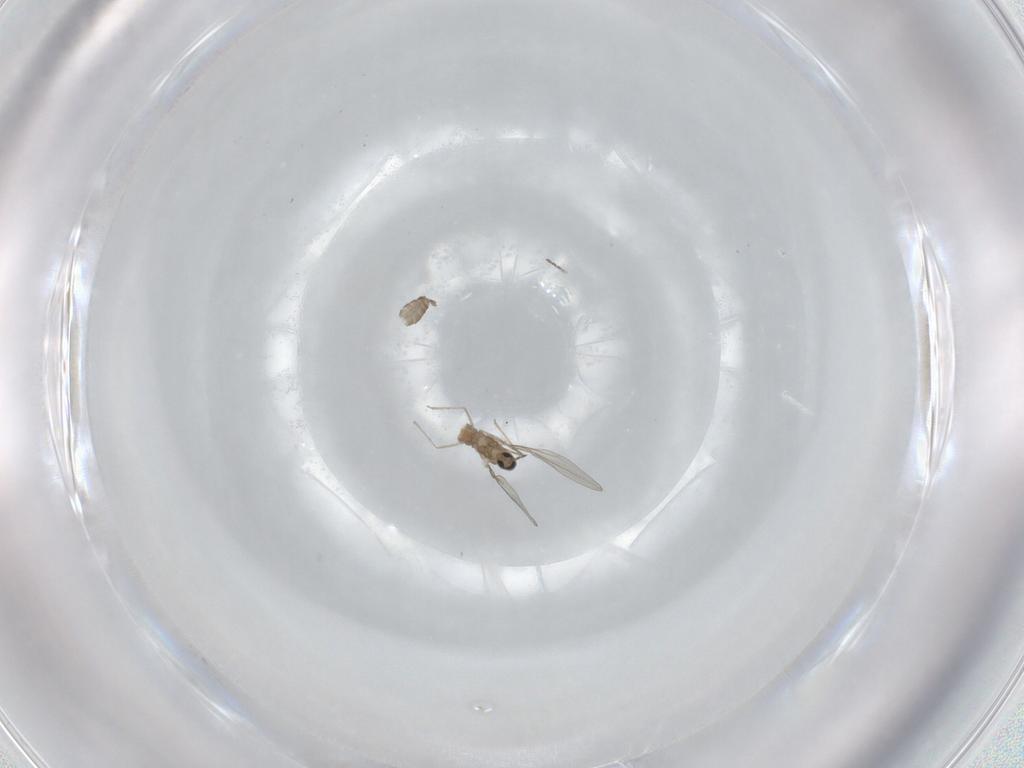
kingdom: Animalia
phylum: Arthropoda
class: Insecta
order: Diptera
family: Cecidomyiidae
